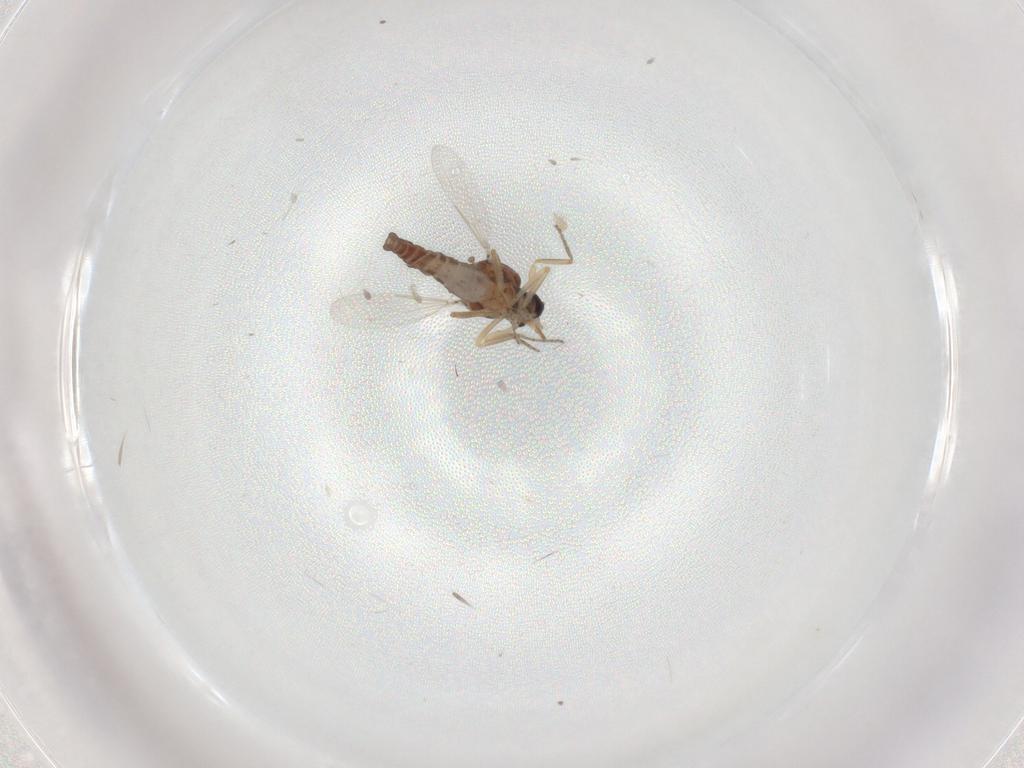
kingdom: Animalia
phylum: Arthropoda
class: Insecta
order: Diptera
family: Ceratopogonidae
